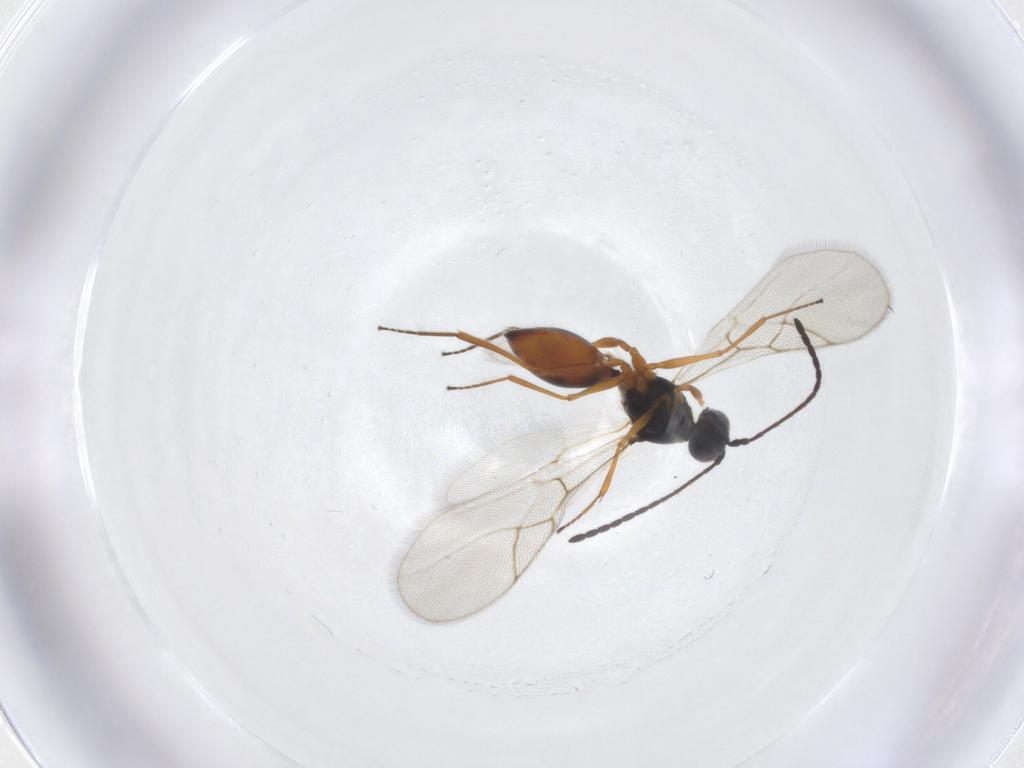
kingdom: Animalia
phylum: Arthropoda
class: Insecta
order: Hymenoptera
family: Figitidae
